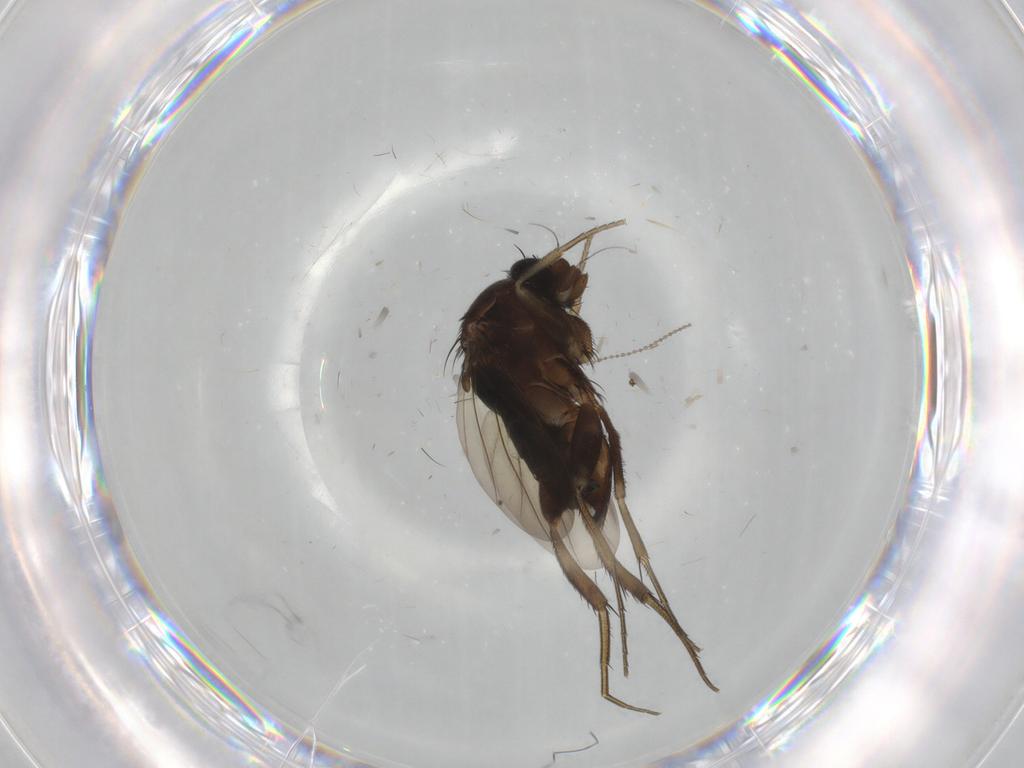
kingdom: Animalia
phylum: Arthropoda
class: Insecta
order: Diptera
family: Phoridae
